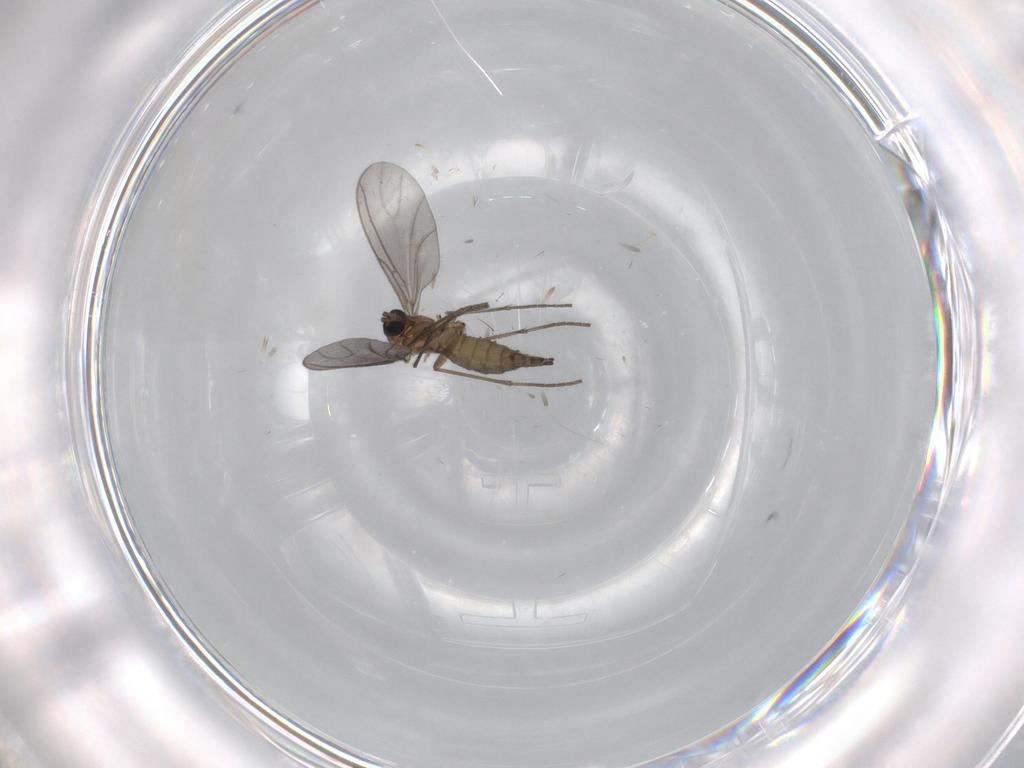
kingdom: Animalia
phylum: Arthropoda
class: Insecta
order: Diptera
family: Sciaridae
